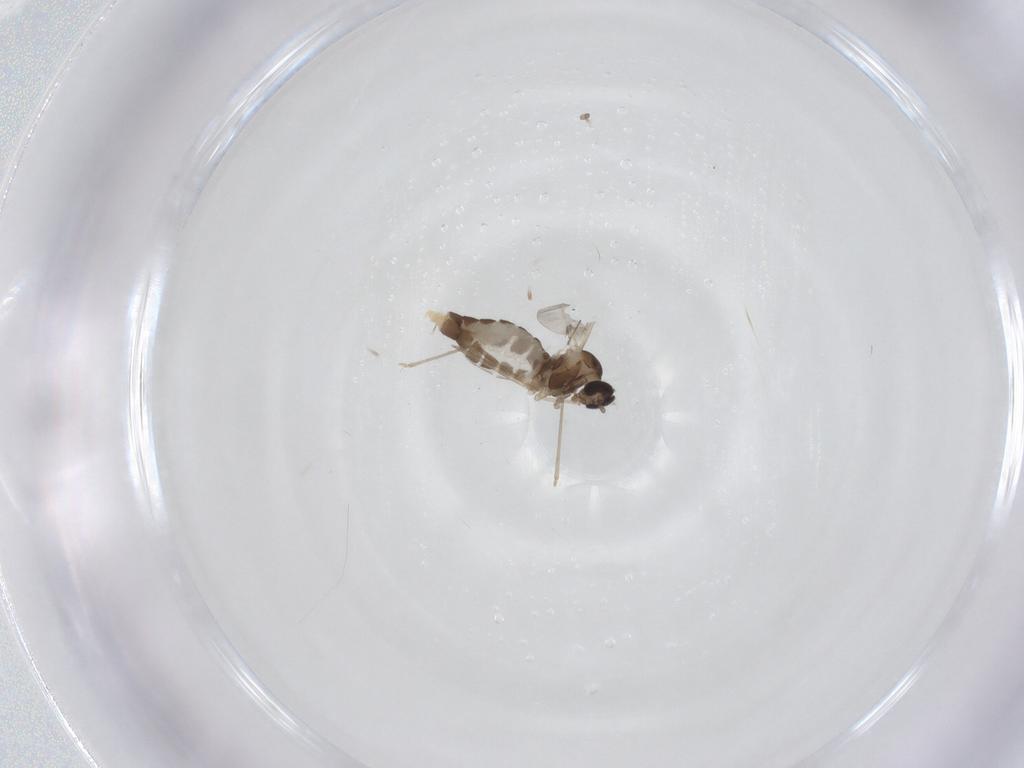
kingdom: Animalia
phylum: Arthropoda
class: Insecta
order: Diptera
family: Cecidomyiidae
